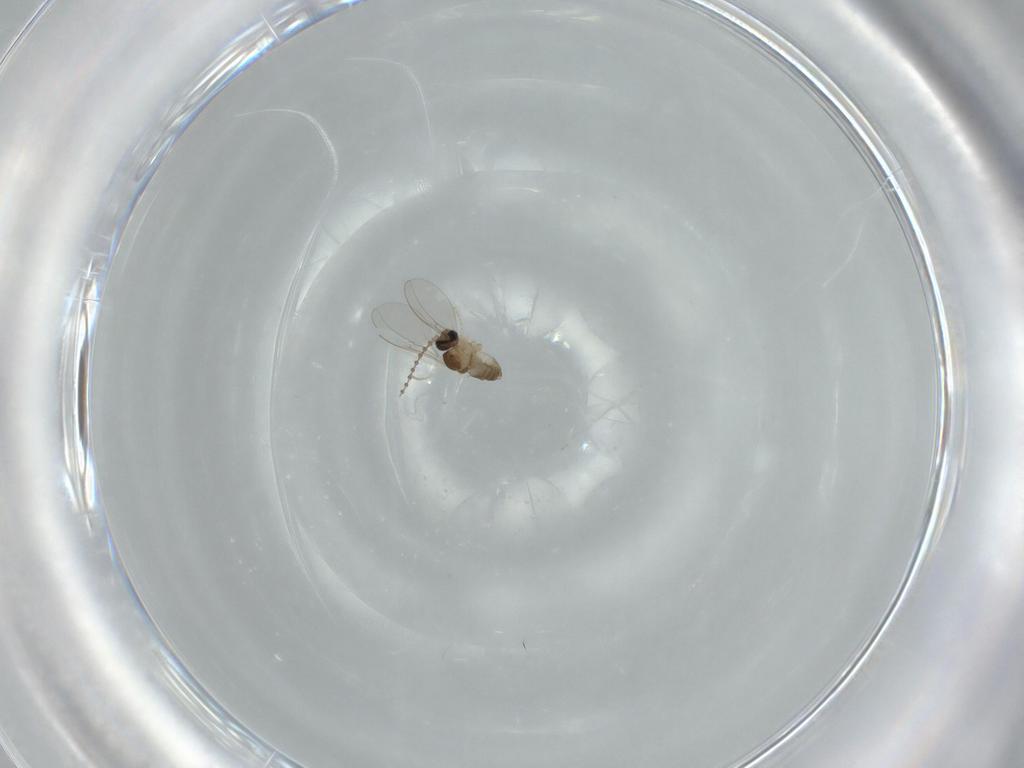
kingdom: Animalia
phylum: Arthropoda
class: Insecta
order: Diptera
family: Cecidomyiidae
